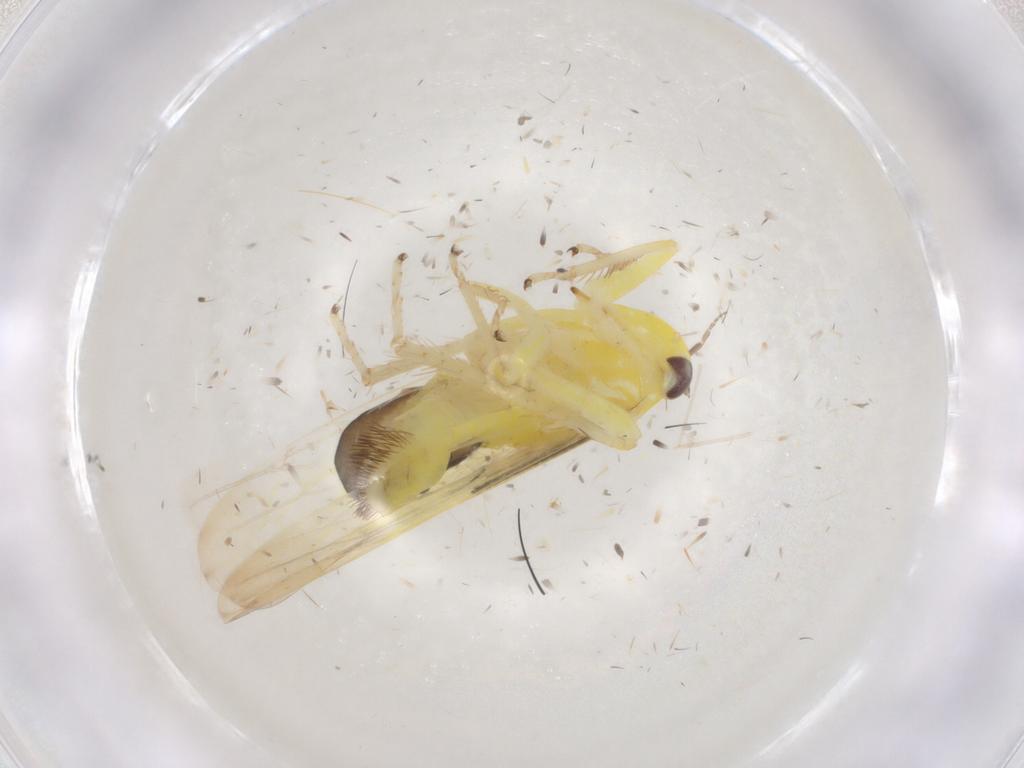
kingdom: Animalia
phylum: Arthropoda
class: Insecta
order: Hemiptera
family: Cicadellidae
